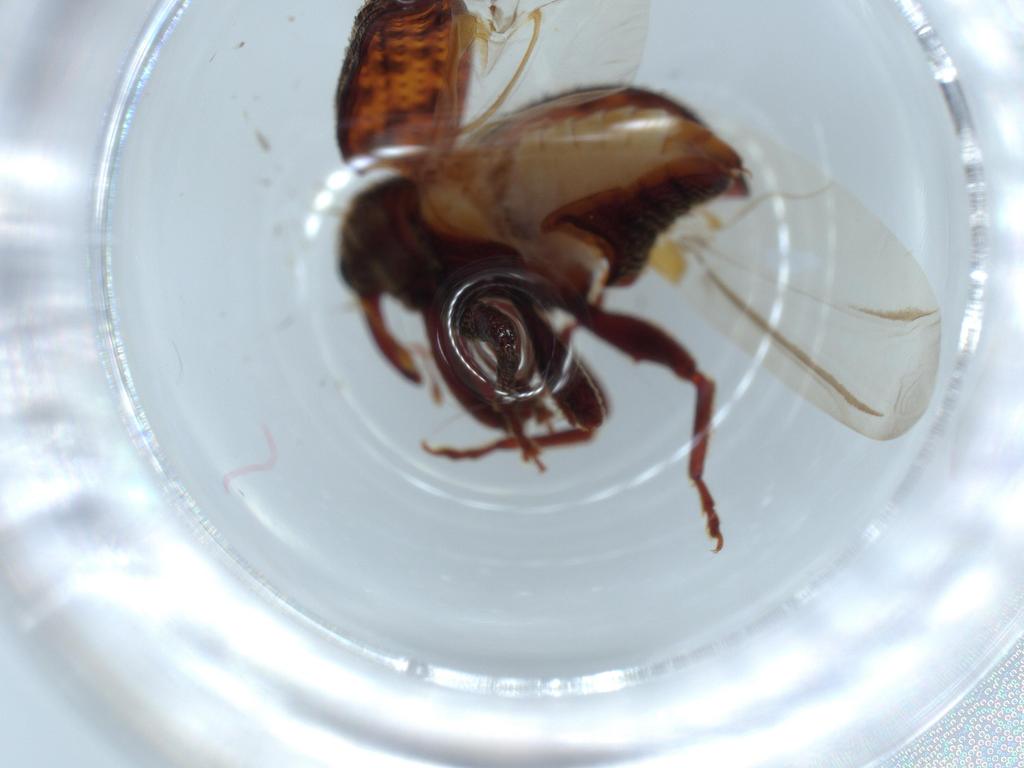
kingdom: Animalia
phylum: Arthropoda
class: Insecta
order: Coleoptera
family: Curculionidae
